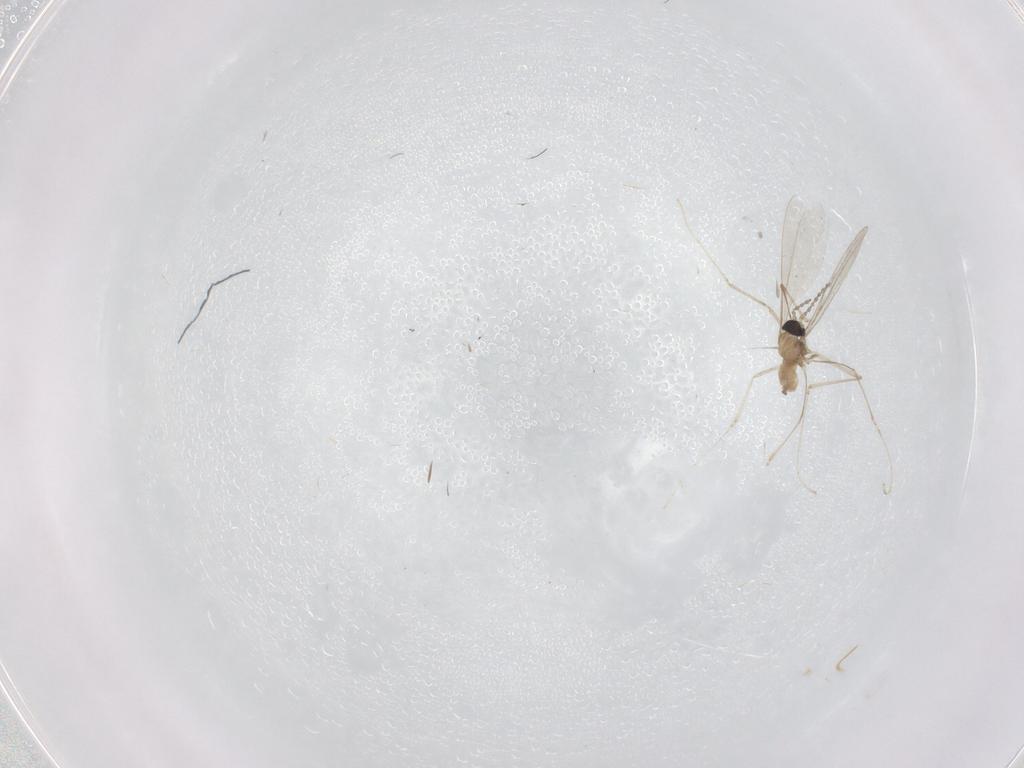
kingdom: Animalia
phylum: Arthropoda
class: Insecta
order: Diptera
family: Cecidomyiidae
